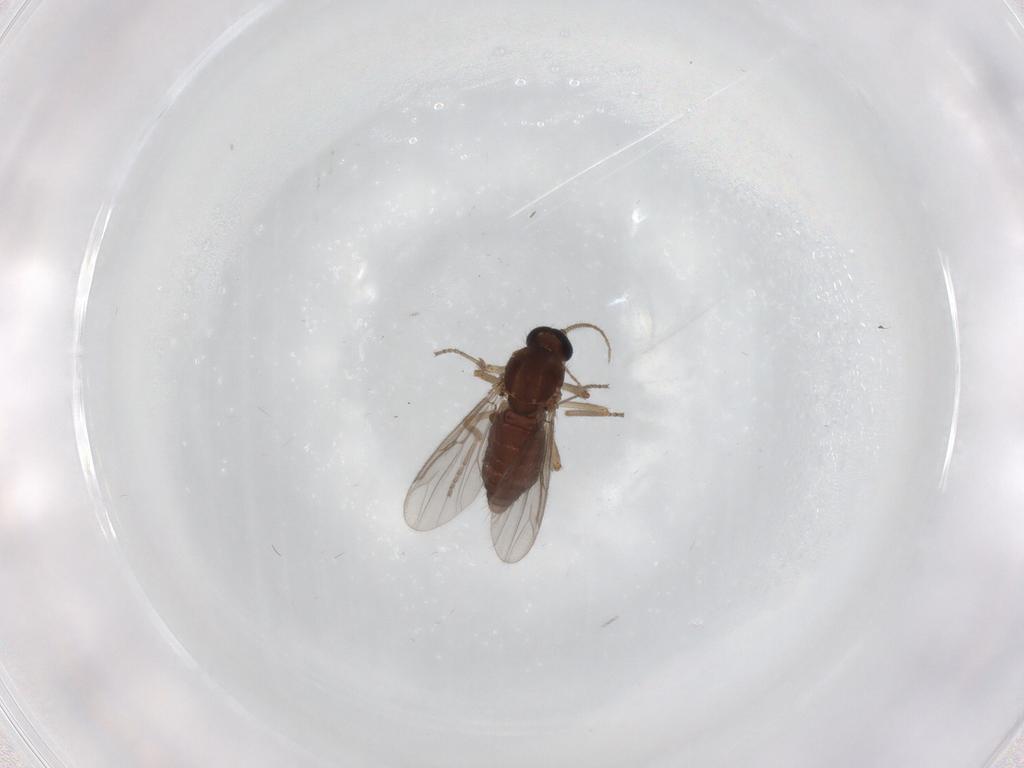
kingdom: Animalia
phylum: Arthropoda
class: Insecta
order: Diptera
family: Ceratopogonidae
